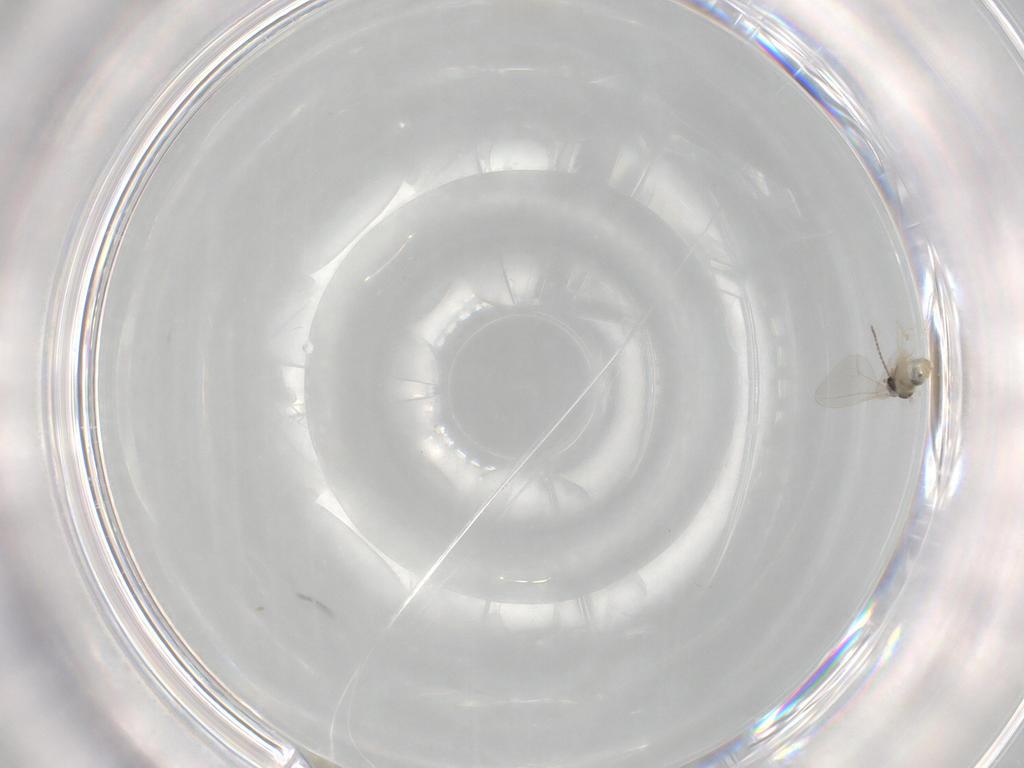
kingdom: Animalia
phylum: Arthropoda
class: Insecta
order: Diptera
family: Cecidomyiidae
